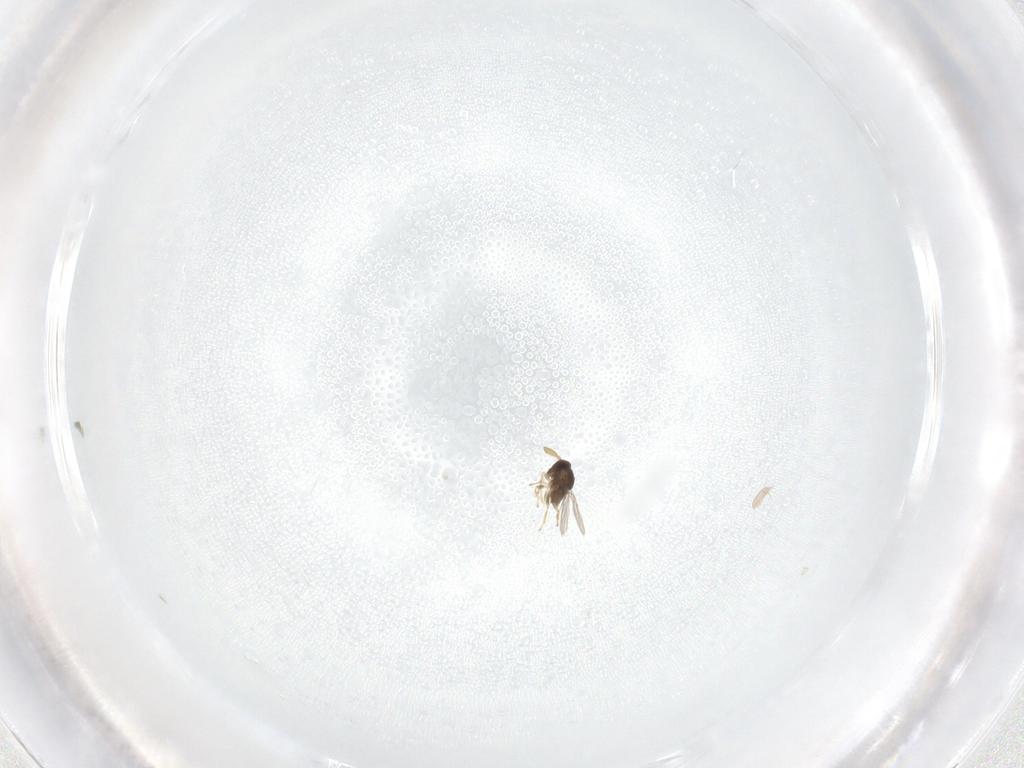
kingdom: Animalia
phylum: Arthropoda
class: Insecta
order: Hymenoptera
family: Encyrtidae
